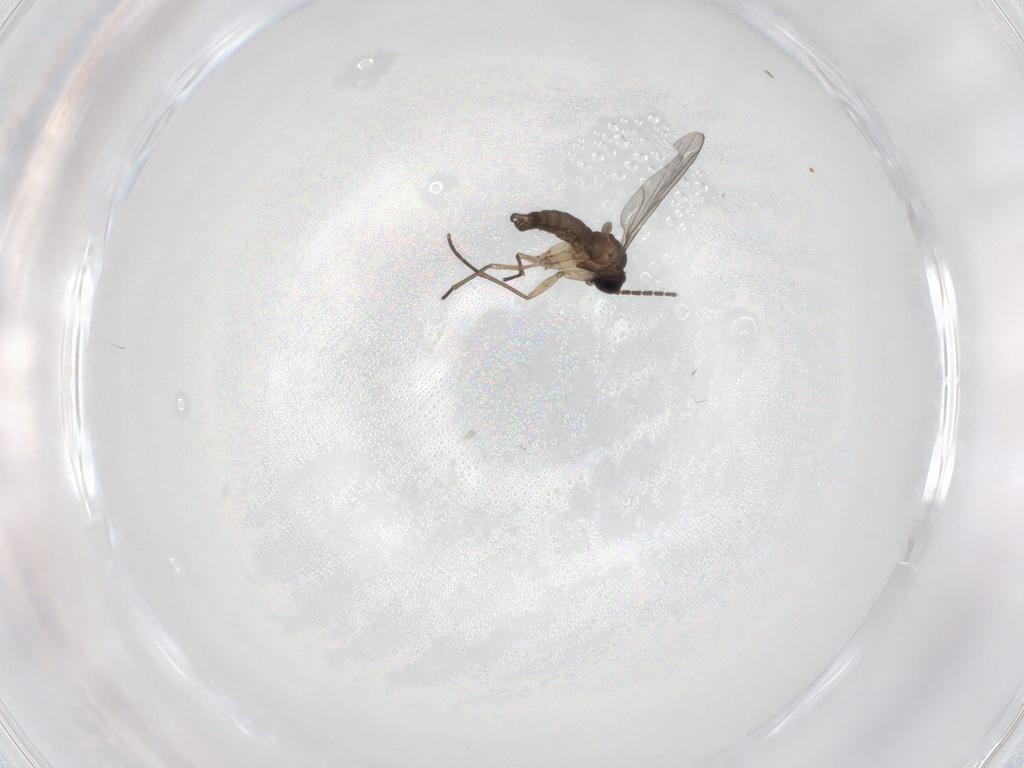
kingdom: Animalia
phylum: Arthropoda
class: Insecta
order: Diptera
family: Sciaridae
